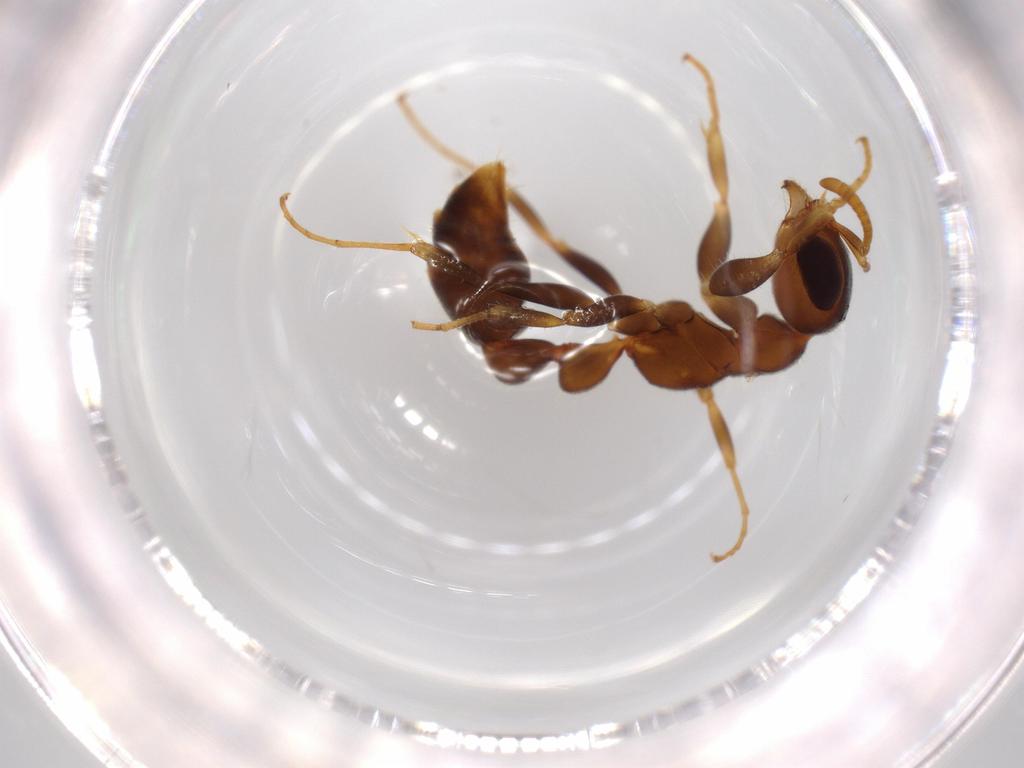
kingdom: Animalia
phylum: Arthropoda
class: Insecta
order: Hymenoptera
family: Formicidae
